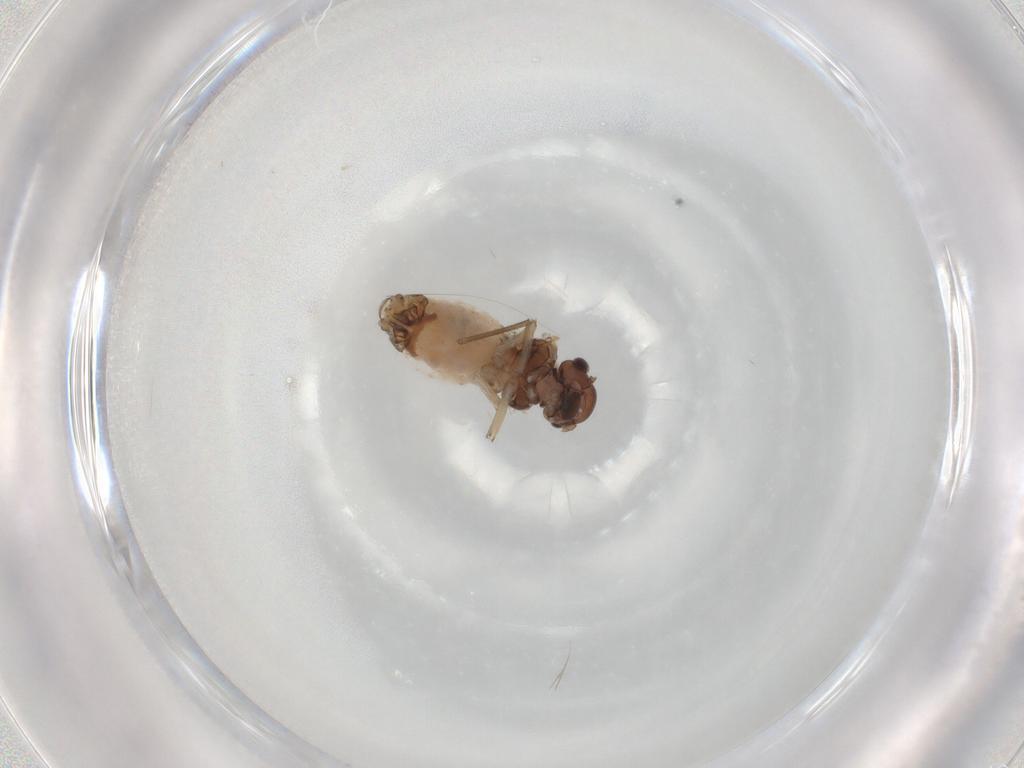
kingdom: Animalia
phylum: Arthropoda
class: Insecta
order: Psocodea
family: Peripsocidae
